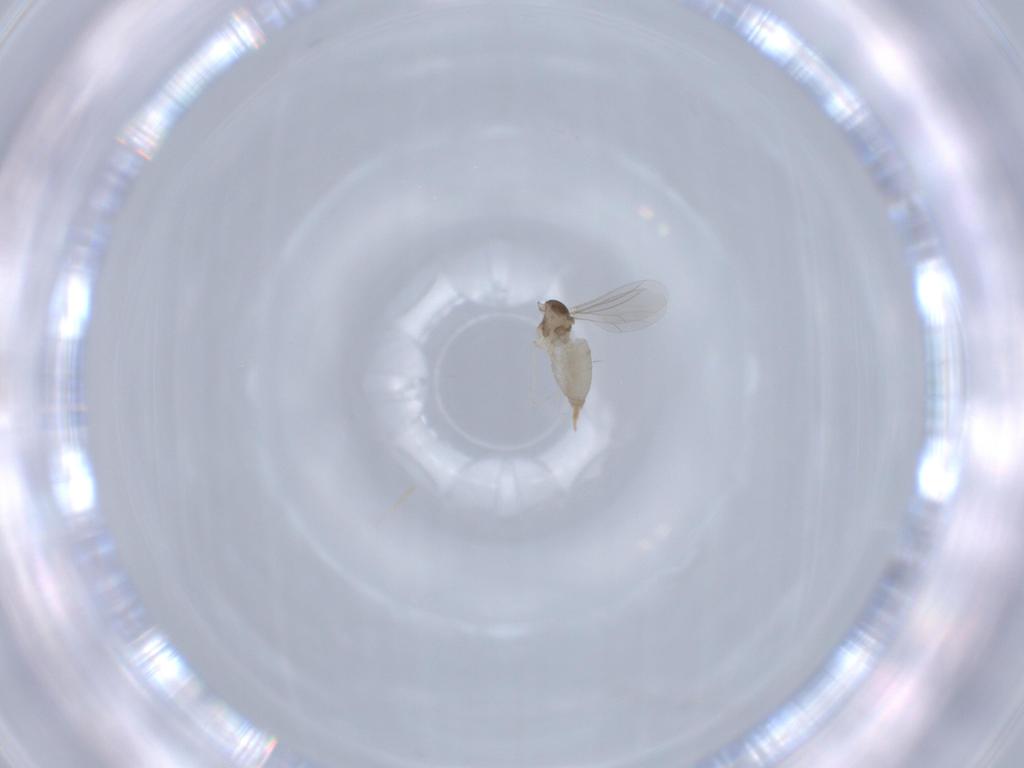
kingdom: Animalia
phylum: Arthropoda
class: Insecta
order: Diptera
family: Cecidomyiidae
